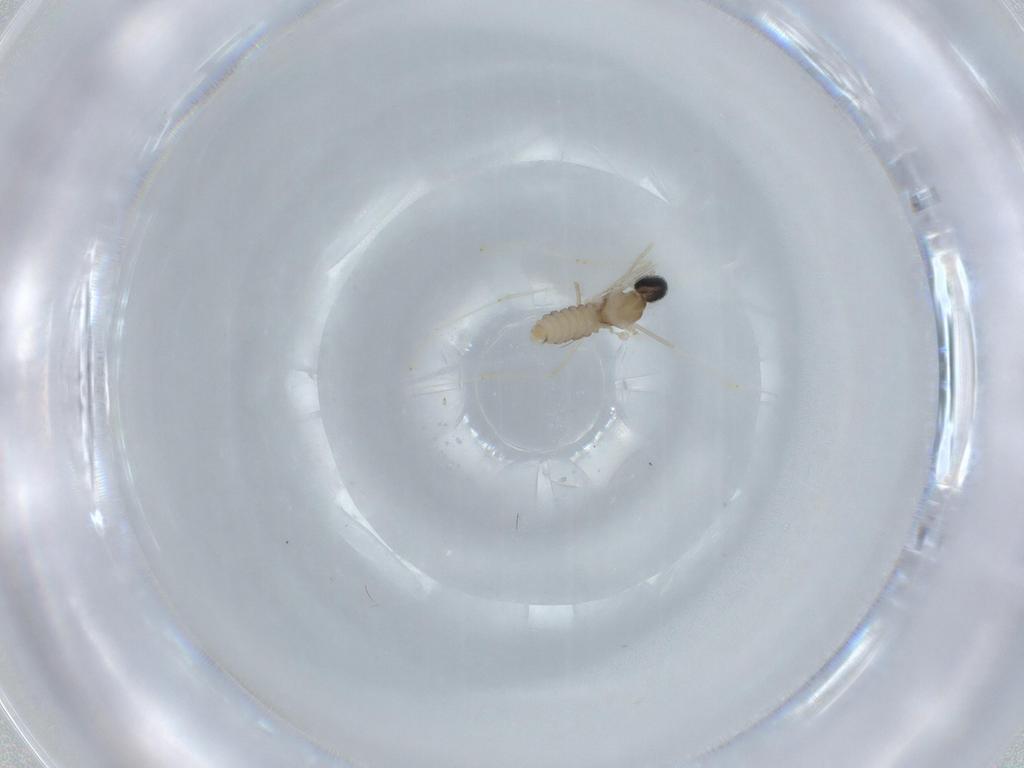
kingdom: Animalia
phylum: Arthropoda
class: Insecta
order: Diptera
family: Cecidomyiidae
